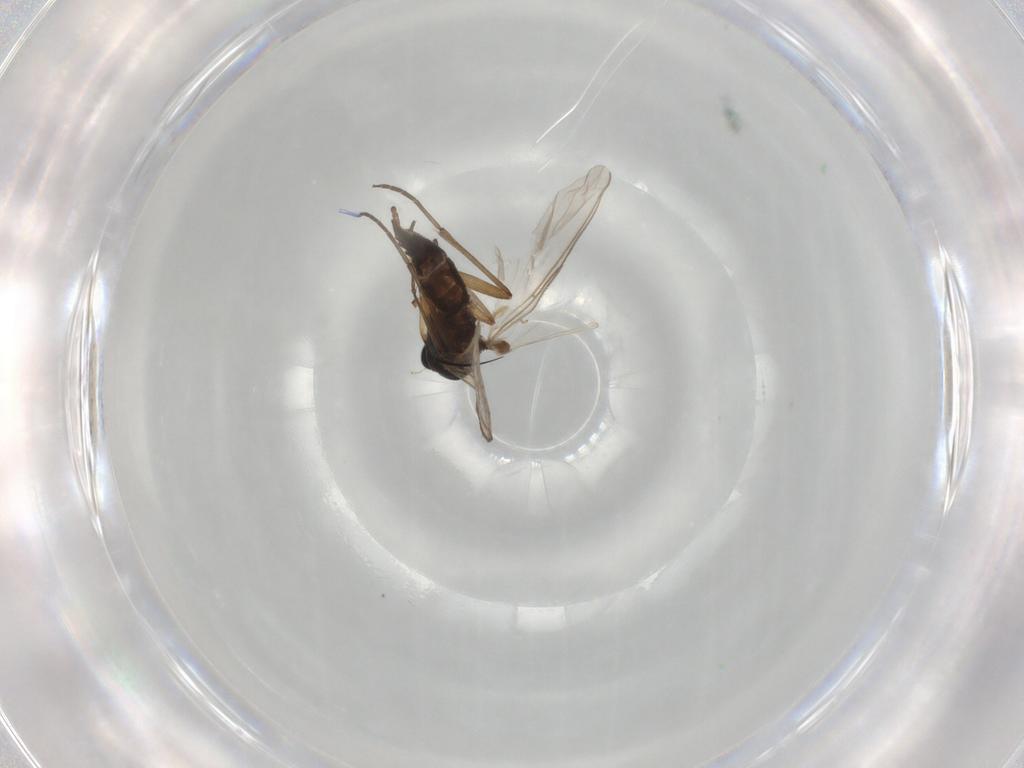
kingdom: Animalia
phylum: Arthropoda
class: Insecta
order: Diptera
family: Sciaridae
